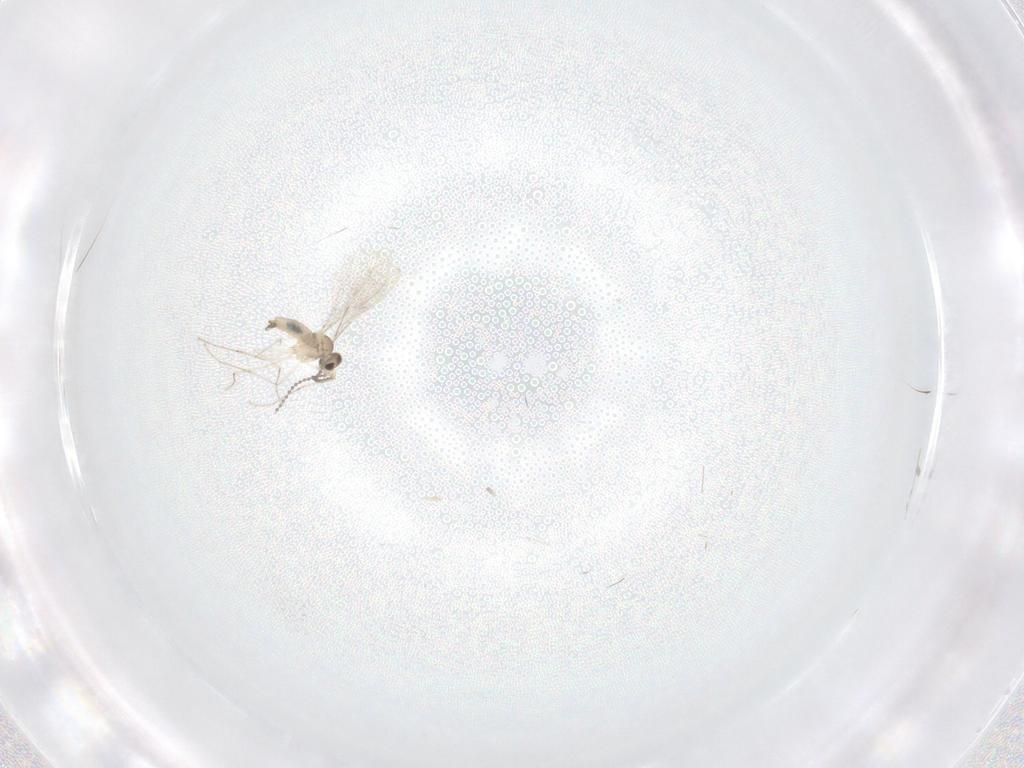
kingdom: Animalia
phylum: Arthropoda
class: Insecta
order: Diptera
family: Cecidomyiidae
